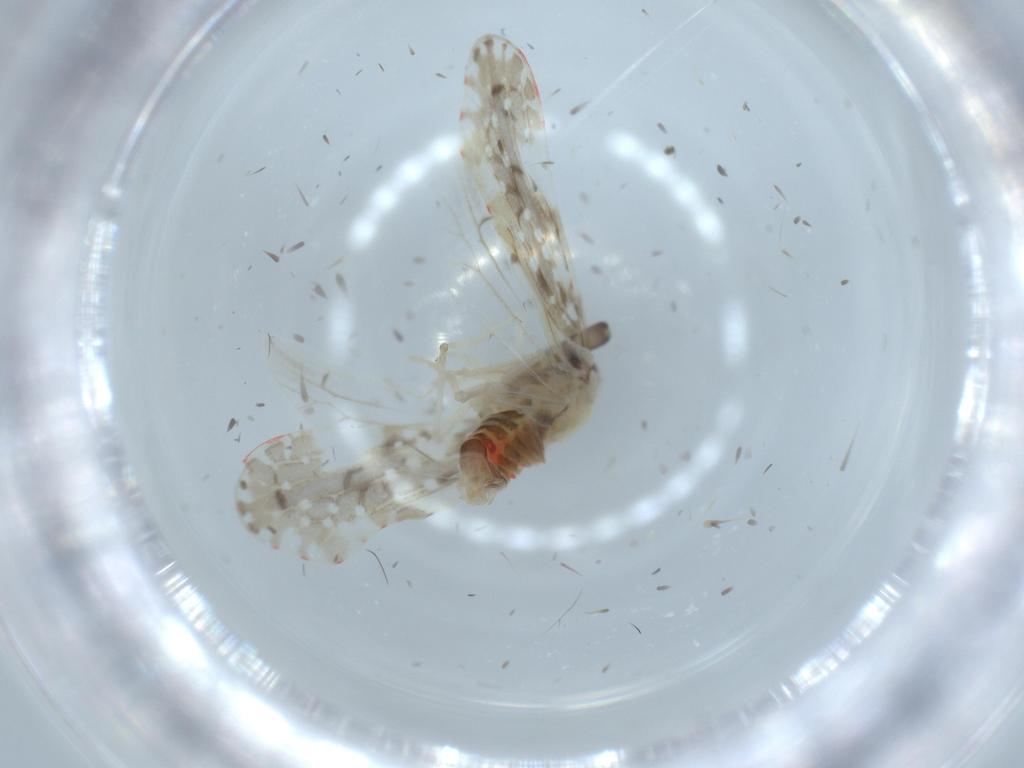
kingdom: Animalia
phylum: Arthropoda
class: Insecta
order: Hemiptera
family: Derbidae
